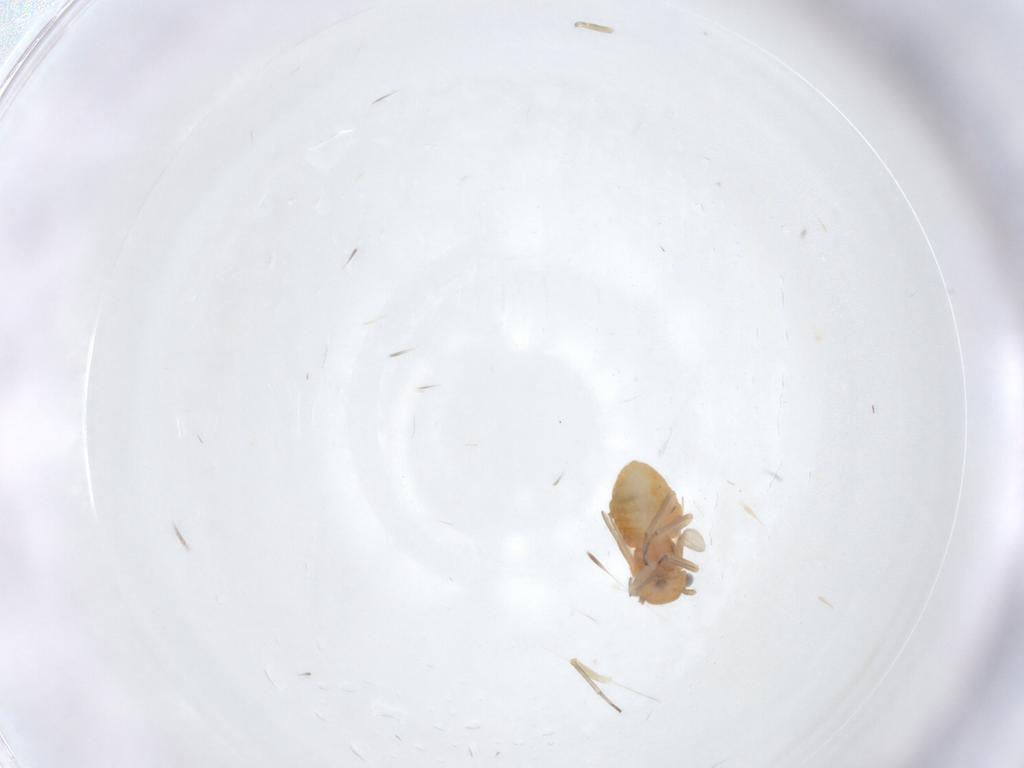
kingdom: Animalia
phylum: Arthropoda
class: Insecta
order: Psocodea
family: Ectopsocidae
